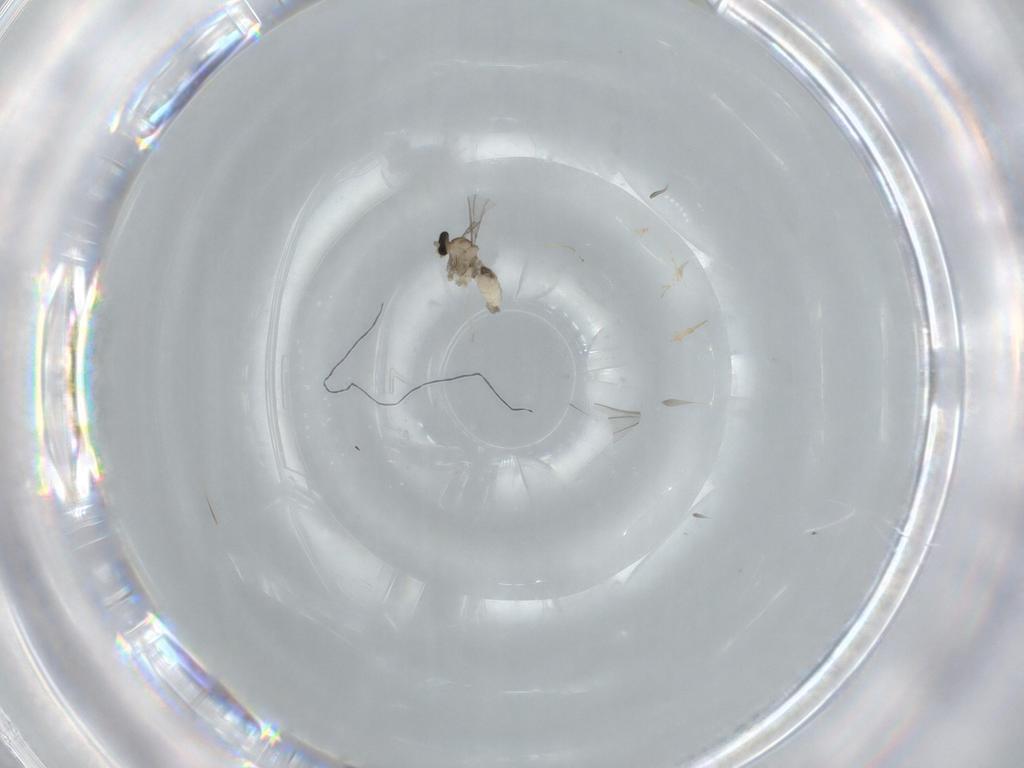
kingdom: Animalia
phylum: Arthropoda
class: Insecta
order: Diptera
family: Cecidomyiidae
